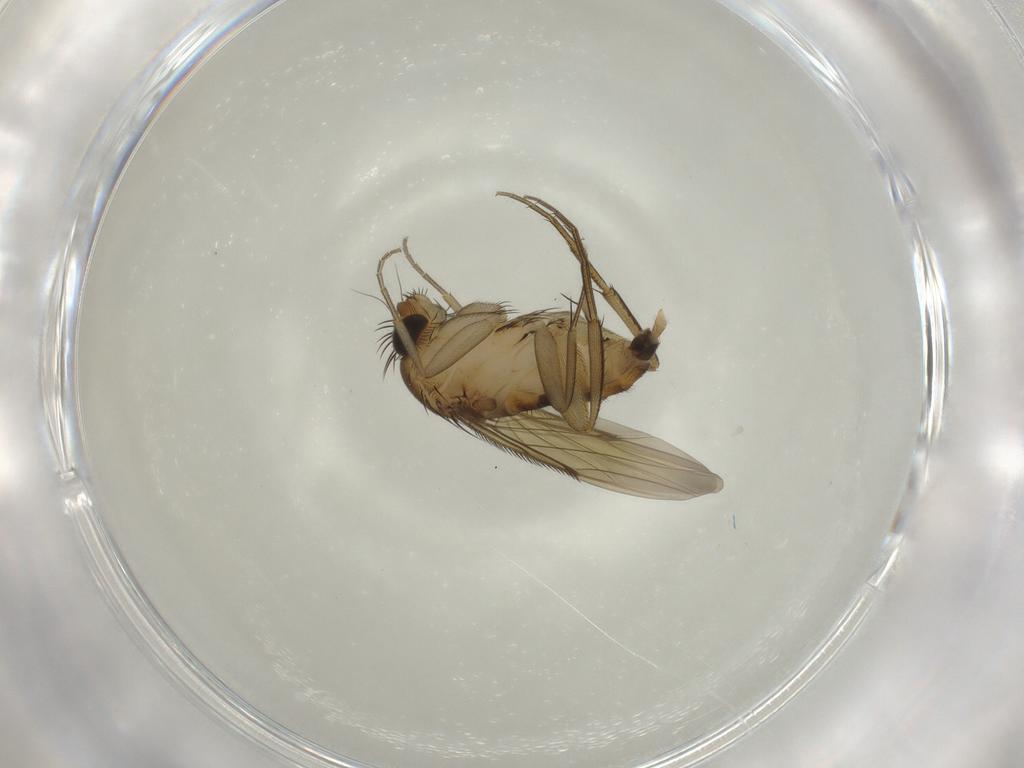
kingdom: Animalia
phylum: Arthropoda
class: Insecta
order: Diptera
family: Phoridae
